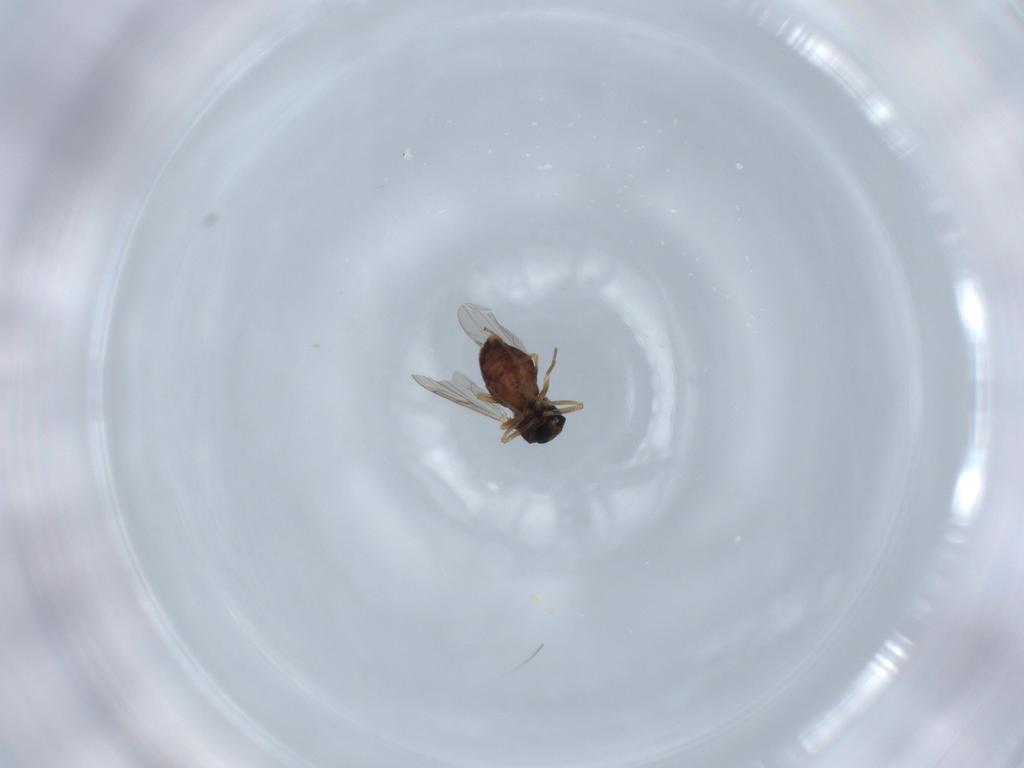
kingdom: Animalia
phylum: Arthropoda
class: Insecta
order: Diptera
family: Ceratopogonidae
